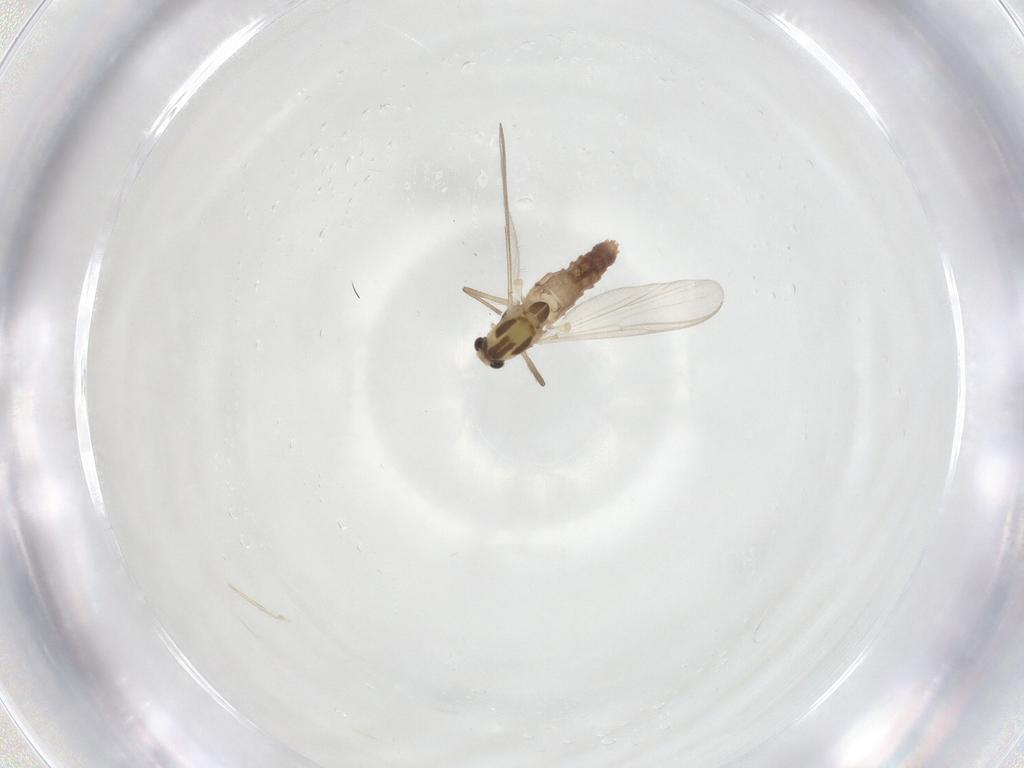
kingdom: Animalia
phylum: Arthropoda
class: Insecta
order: Diptera
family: Chironomidae
